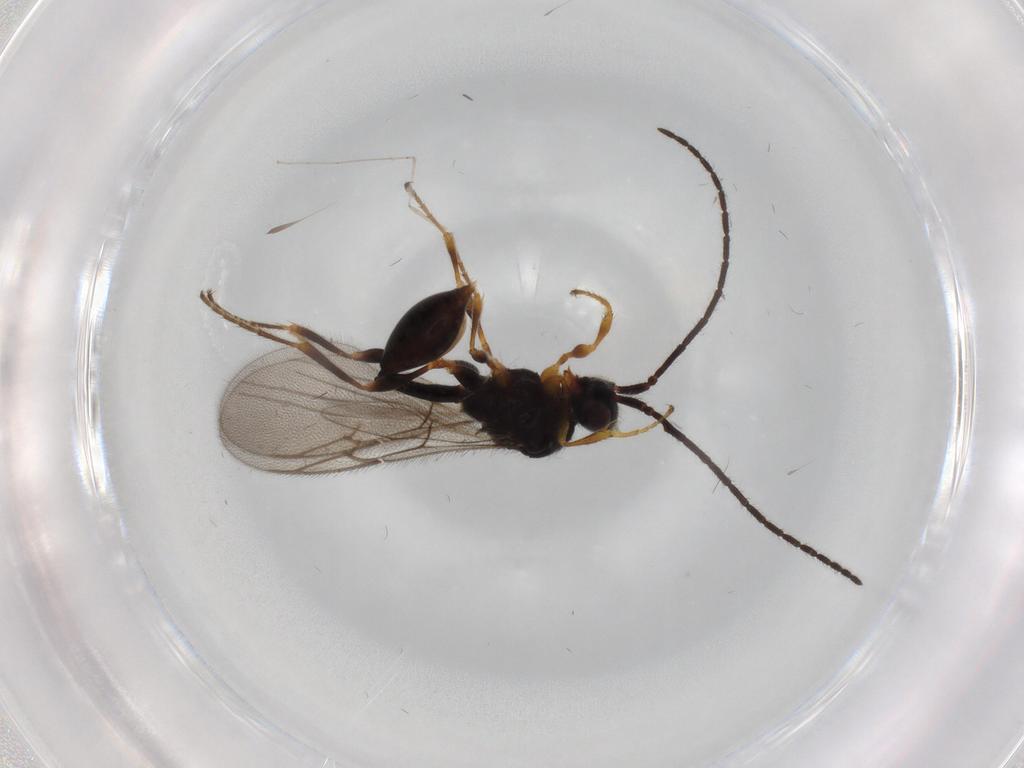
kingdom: Animalia
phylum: Arthropoda
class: Insecta
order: Hymenoptera
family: Diapriidae
